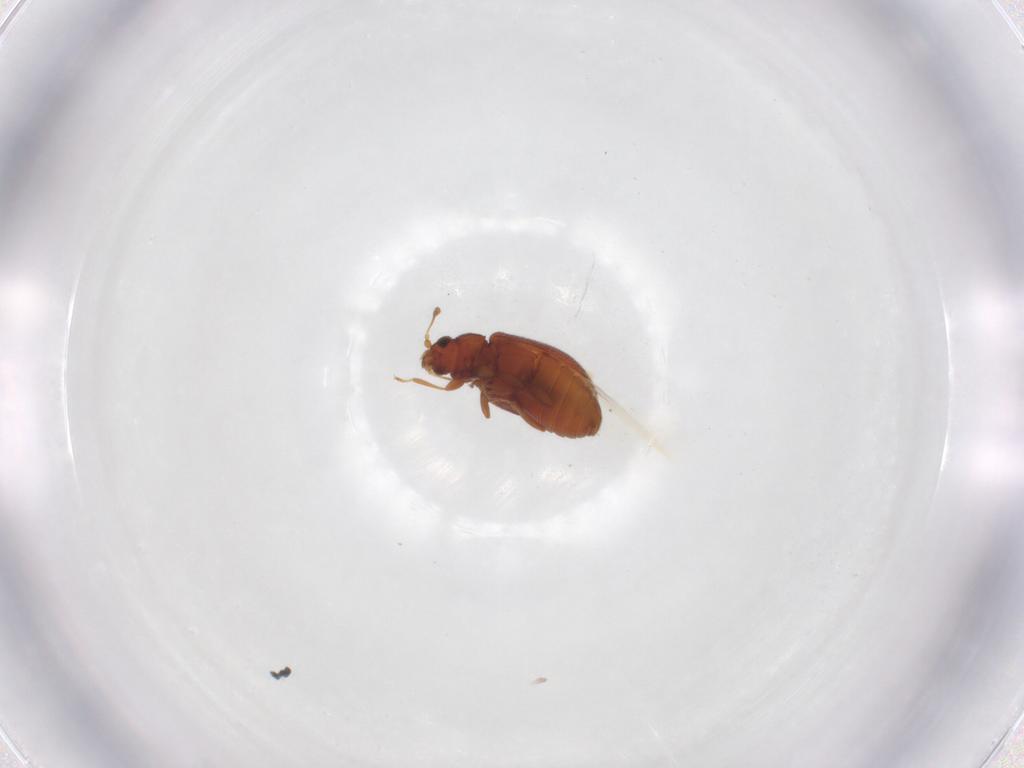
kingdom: Animalia
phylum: Arthropoda
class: Insecta
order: Coleoptera
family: Latridiidae
